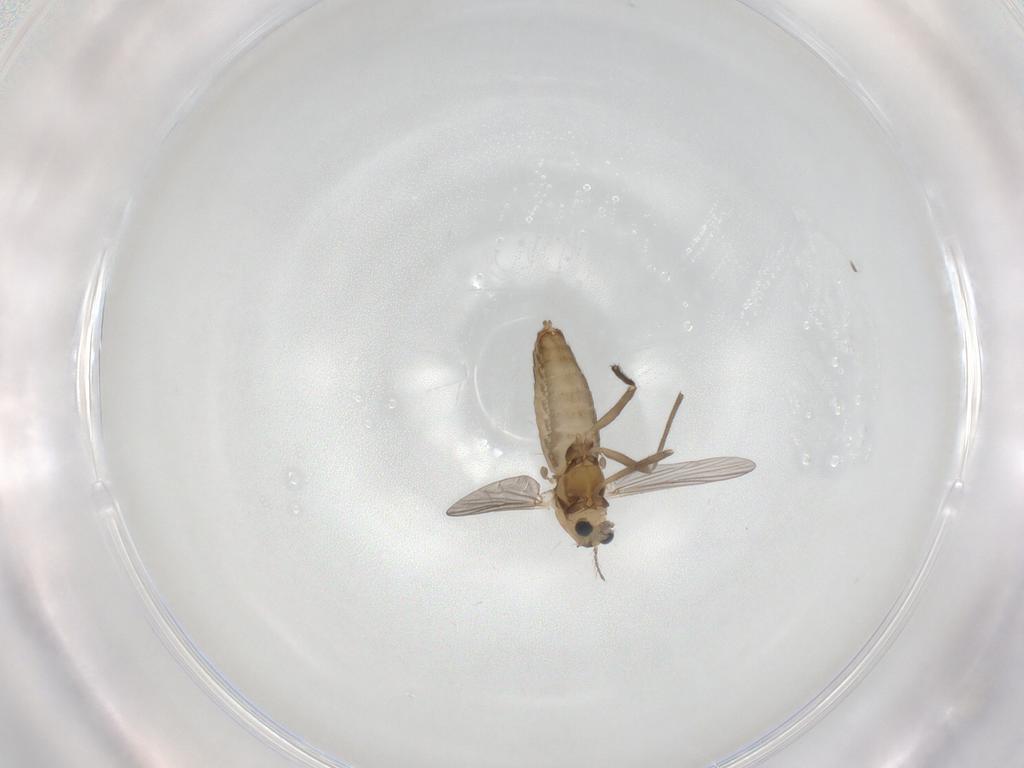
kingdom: Animalia
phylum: Arthropoda
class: Insecta
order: Diptera
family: Chironomidae
